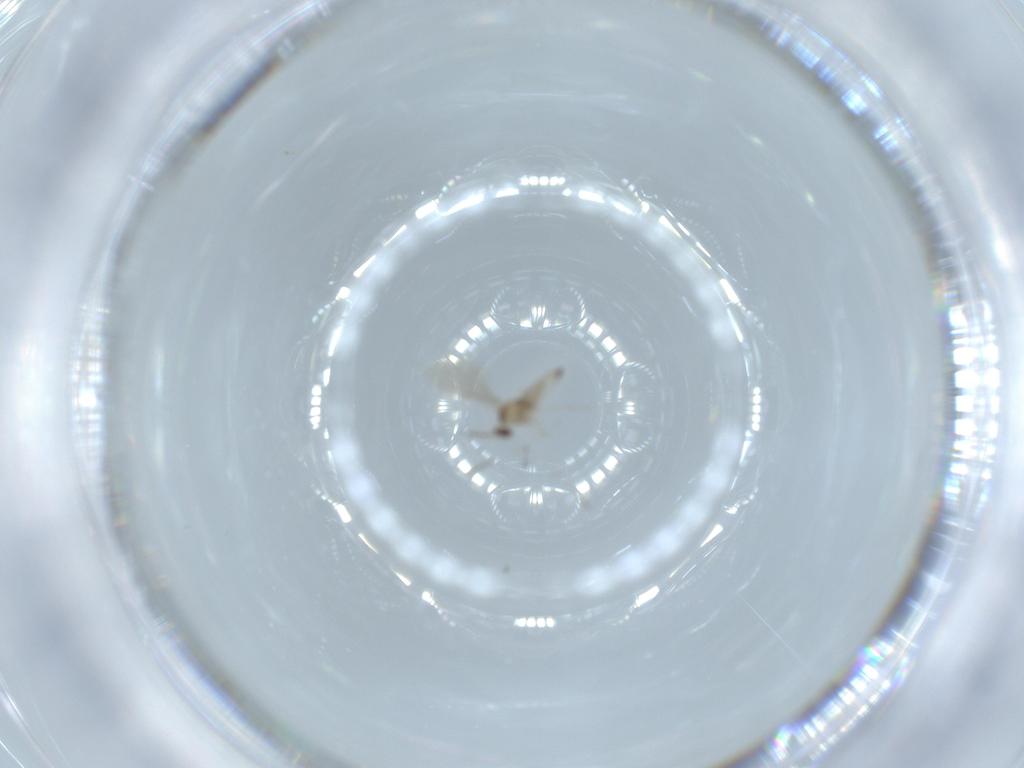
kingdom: Animalia
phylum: Arthropoda
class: Insecta
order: Diptera
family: Cecidomyiidae
